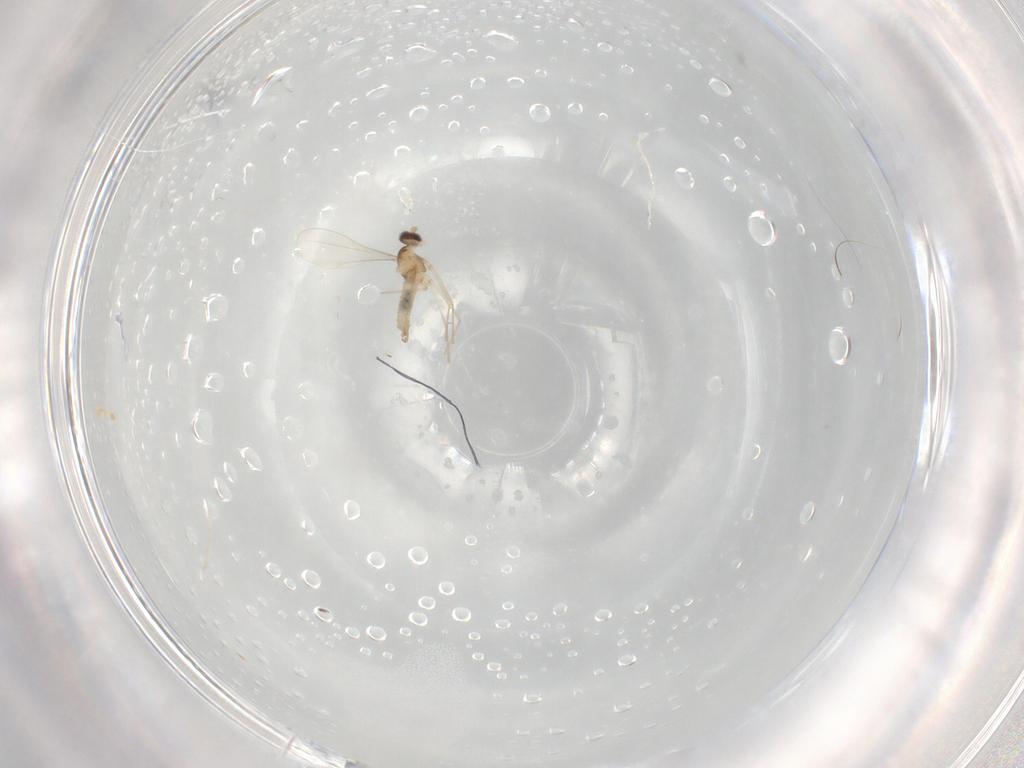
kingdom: Animalia
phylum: Arthropoda
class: Insecta
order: Diptera
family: Cecidomyiidae
